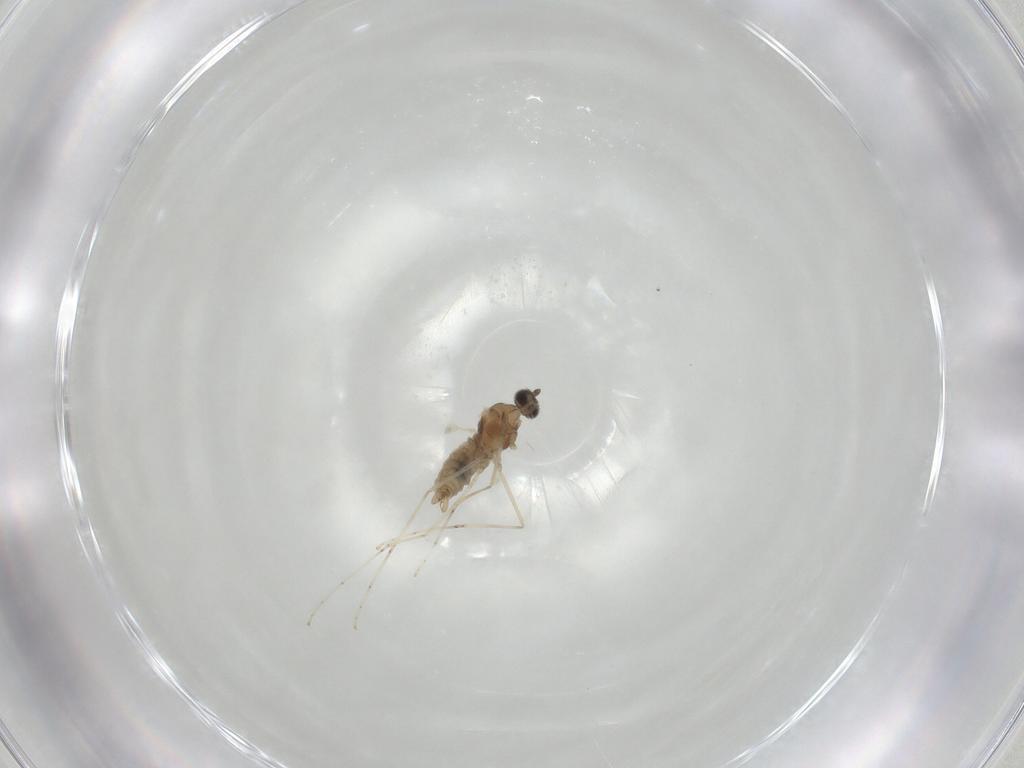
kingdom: Animalia
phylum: Arthropoda
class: Insecta
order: Diptera
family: Cecidomyiidae
